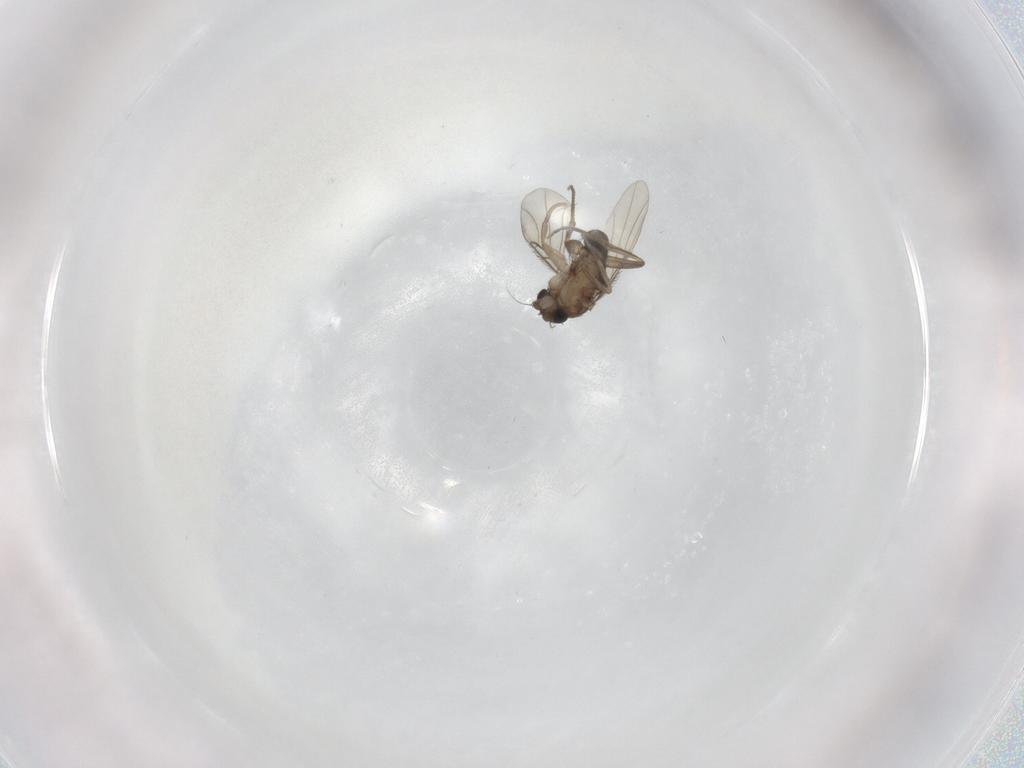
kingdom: Animalia
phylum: Arthropoda
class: Insecta
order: Diptera
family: Phoridae
